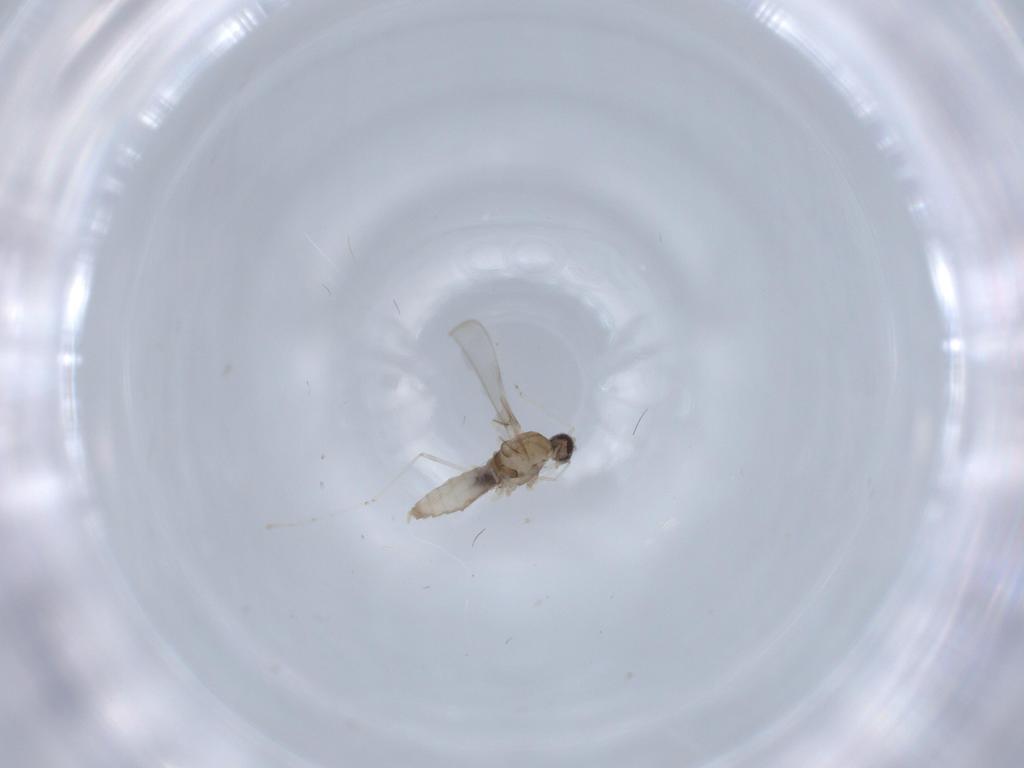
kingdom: Animalia
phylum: Arthropoda
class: Insecta
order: Diptera
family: Cecidomyiidae
